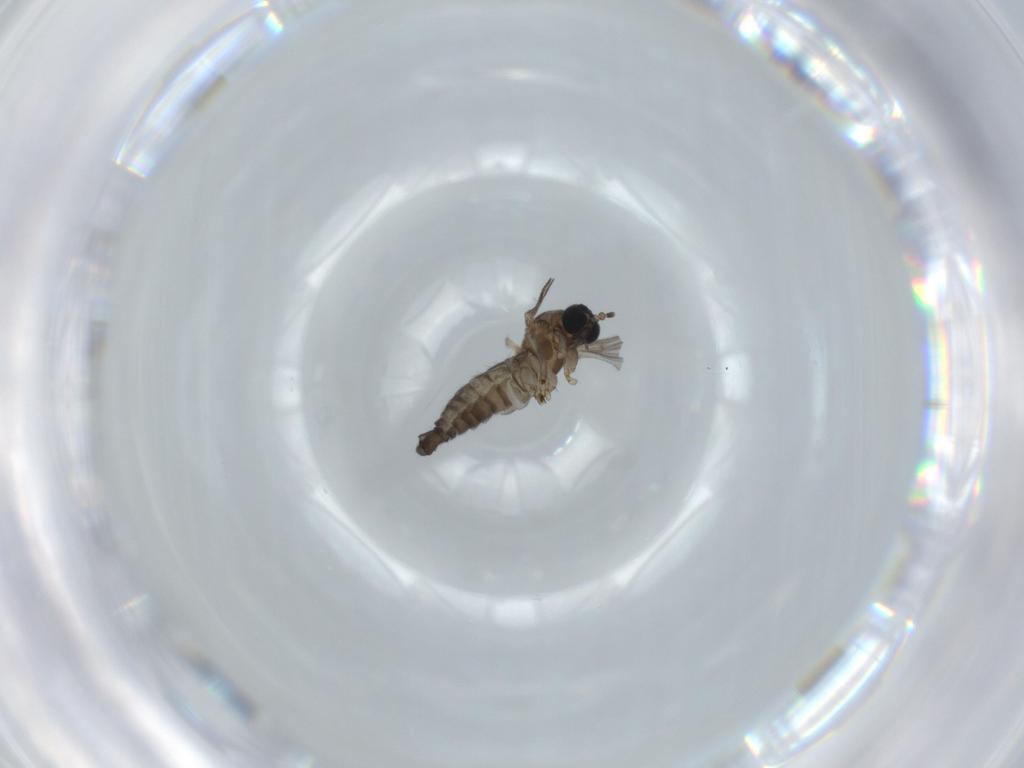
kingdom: Animalia
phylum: Arthropoda
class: Insecta
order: Diptera
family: Sciaridae
